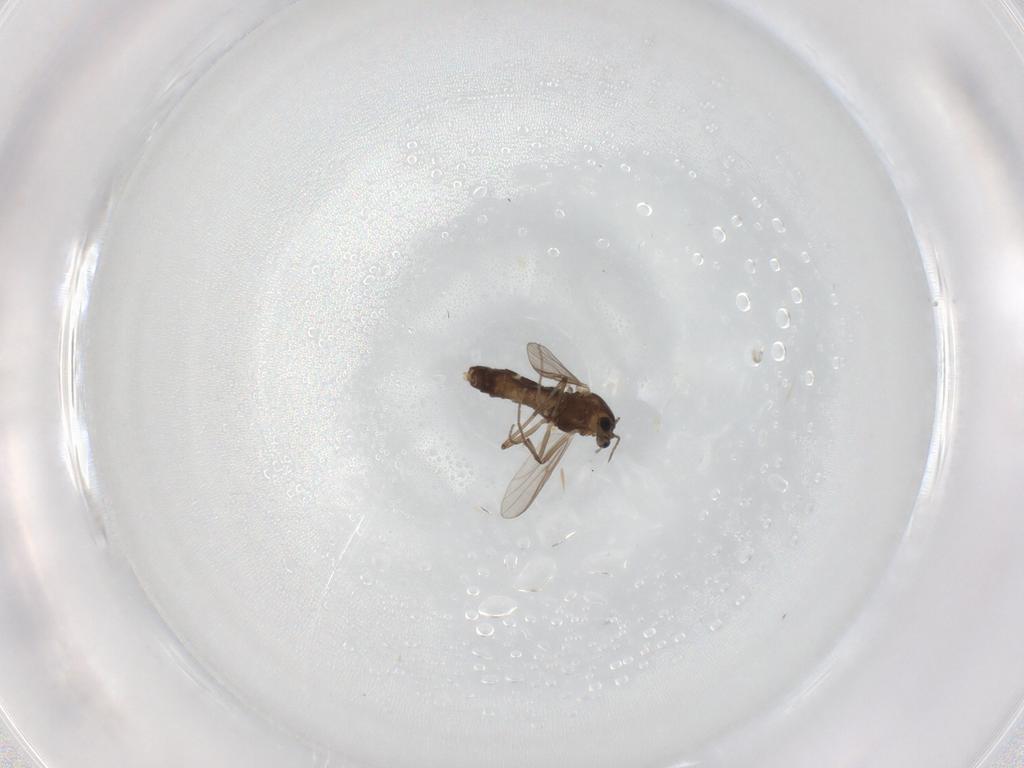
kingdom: Animalia
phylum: Arthropoda
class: Insecta
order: Diptera
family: Chironomidae
